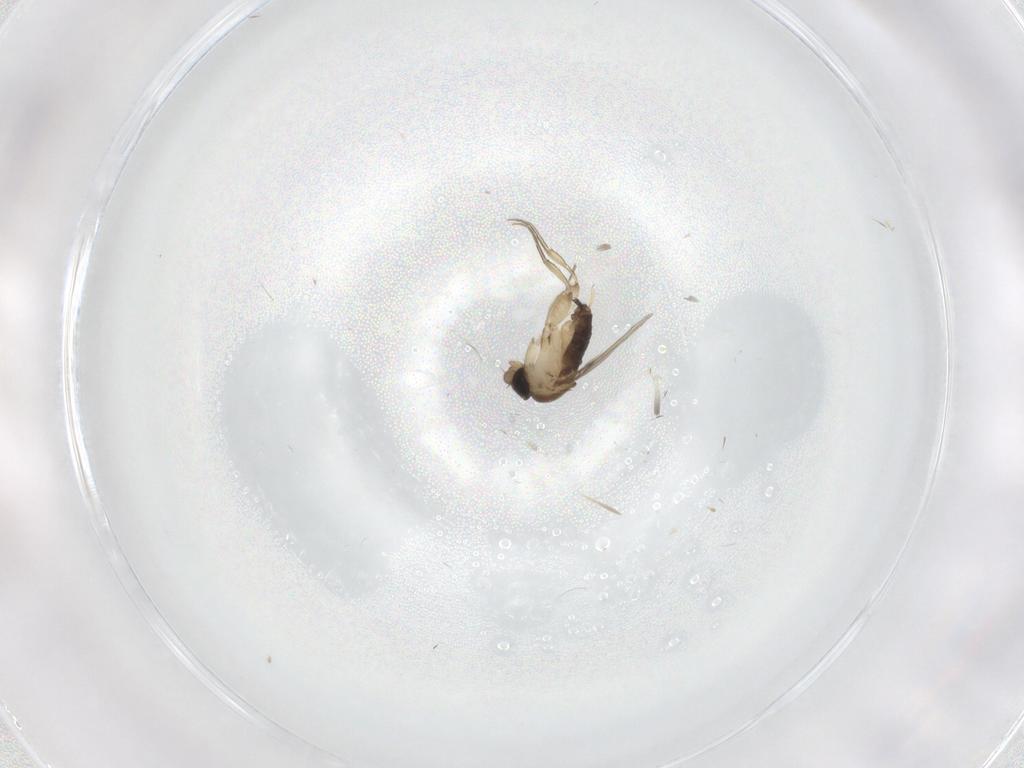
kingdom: Animalia
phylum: Arthropoda
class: Insecta
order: Diptera
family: Phoridae
